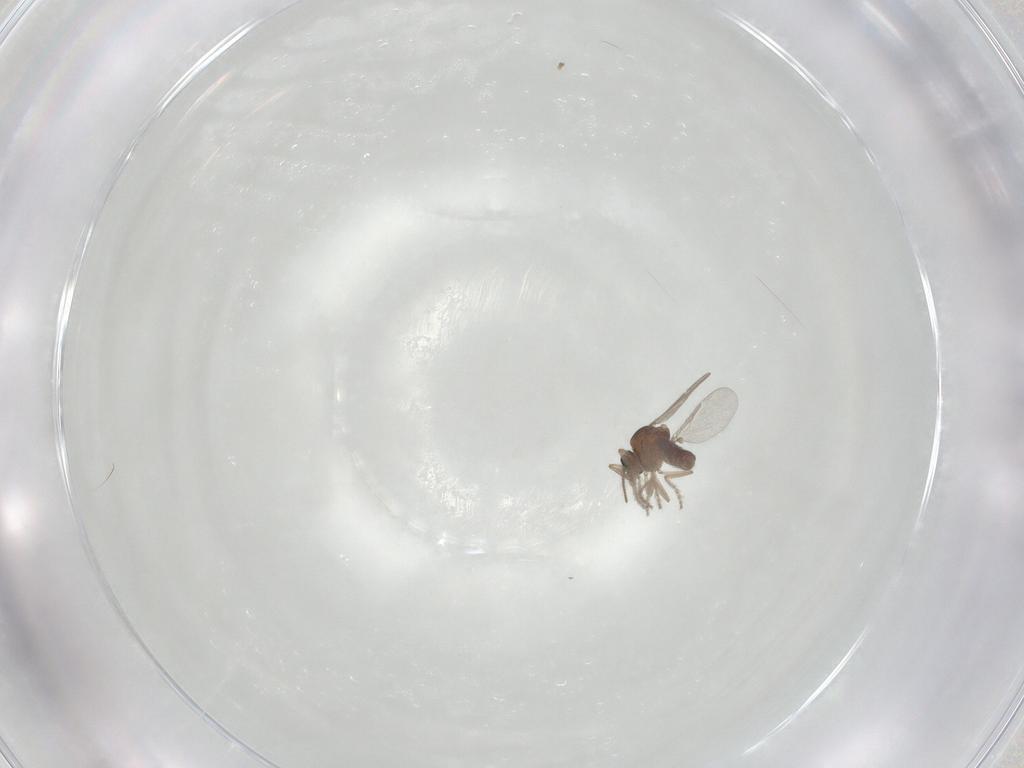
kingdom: Animalia
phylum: Arthropoda
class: Insecta
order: Diptera
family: Ceratopogonidae
